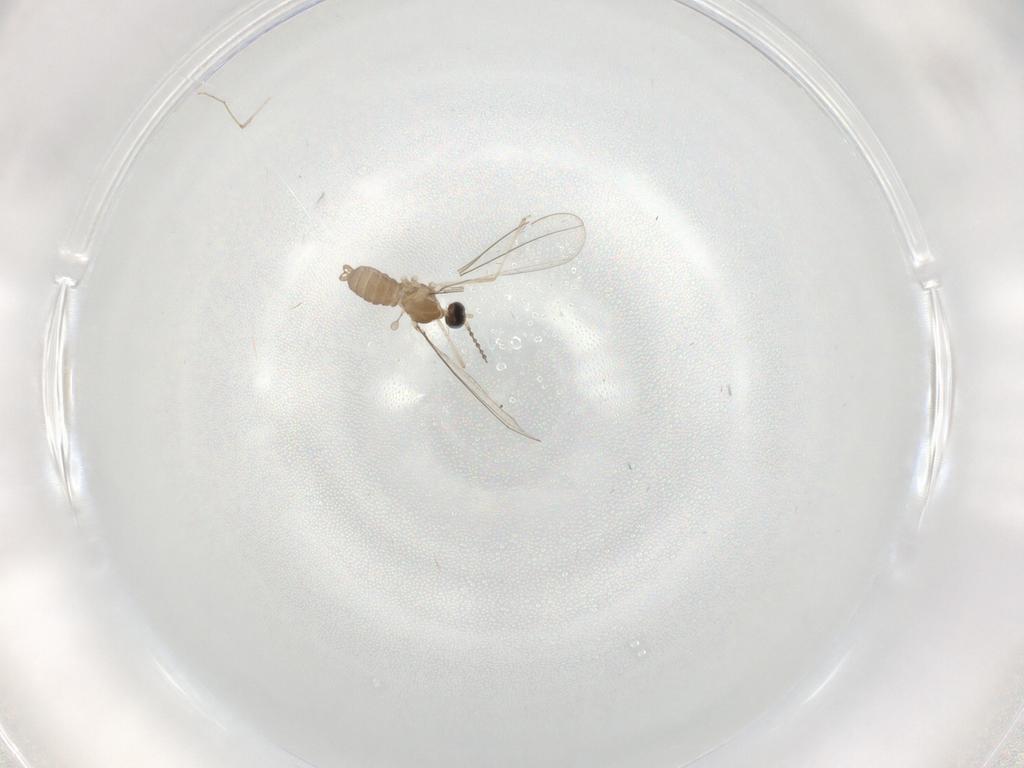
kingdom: Animalia
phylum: Arthropoda
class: Insecta
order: Diptera
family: Cecidomyiidae
